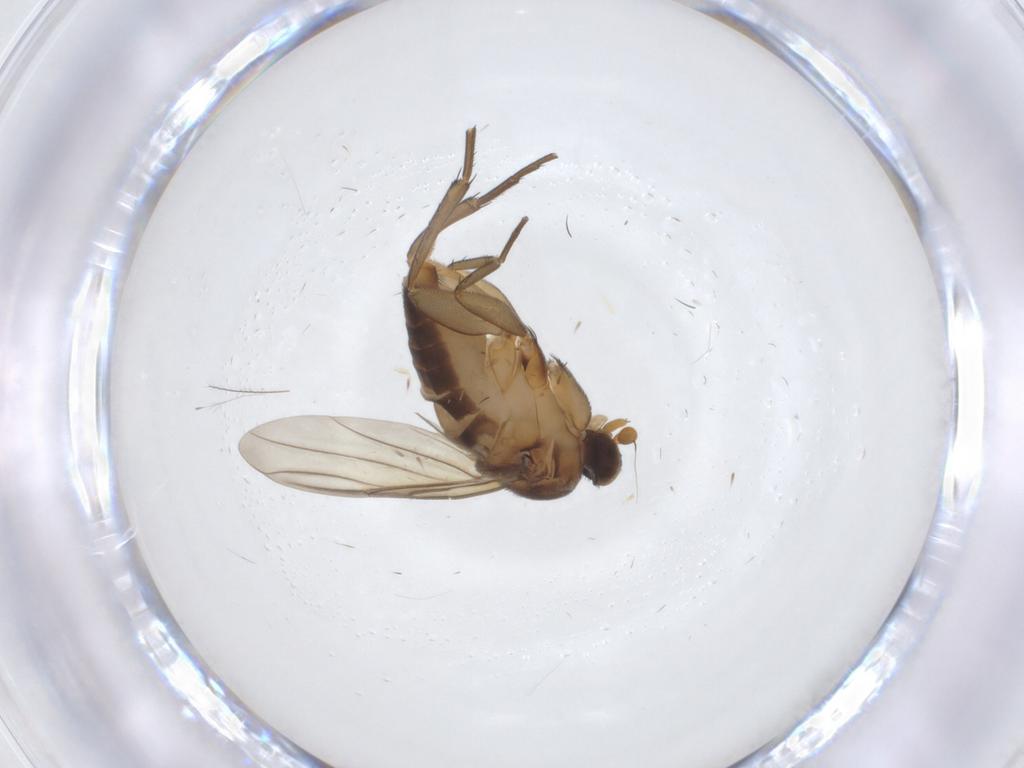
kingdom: Animalia
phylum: Arthropoda
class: Insecta
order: Diptera
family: Phoridae
